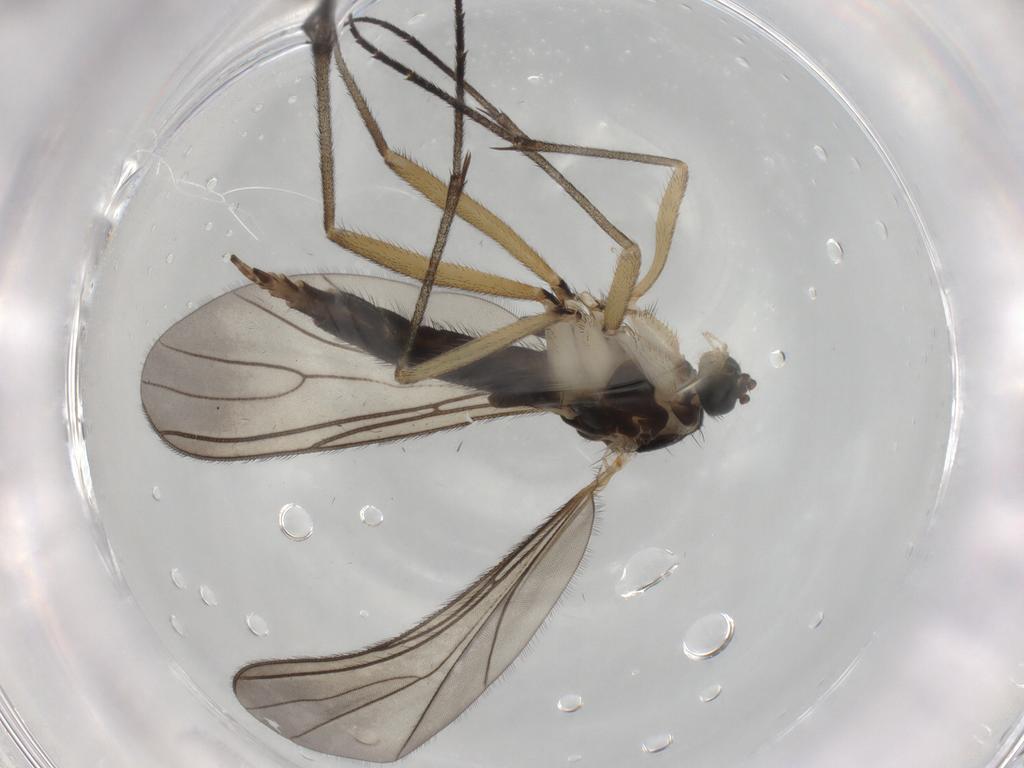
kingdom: Animalia
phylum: Arthropoda
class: Insecta
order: Diptera
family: Sciaridae
